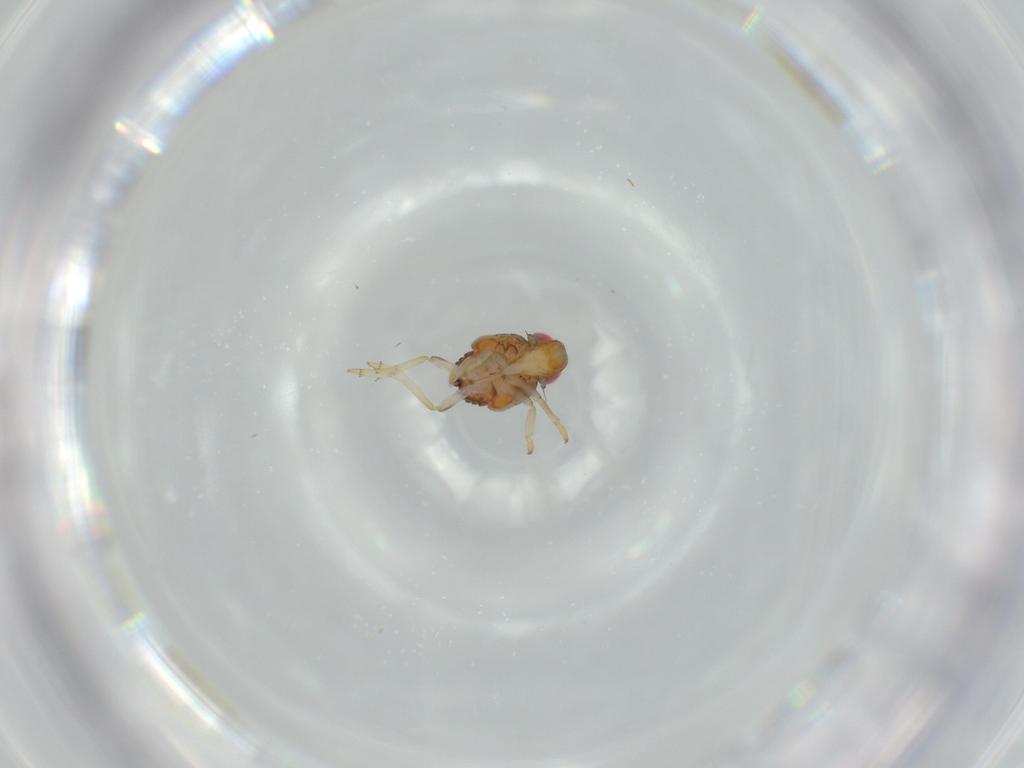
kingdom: Animalia
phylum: Arthropoda
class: Insecta
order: Hemiptera
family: Issidae
